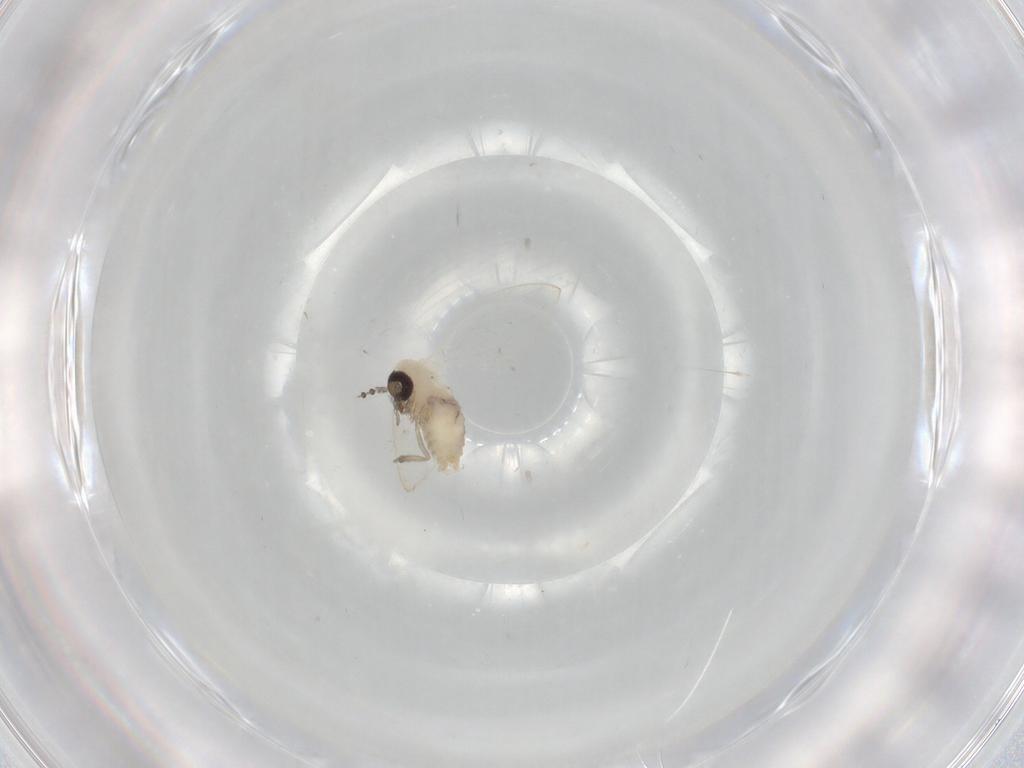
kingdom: Animalia
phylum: Arthropoda
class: Insecta
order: Diptera
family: Psychodidae
